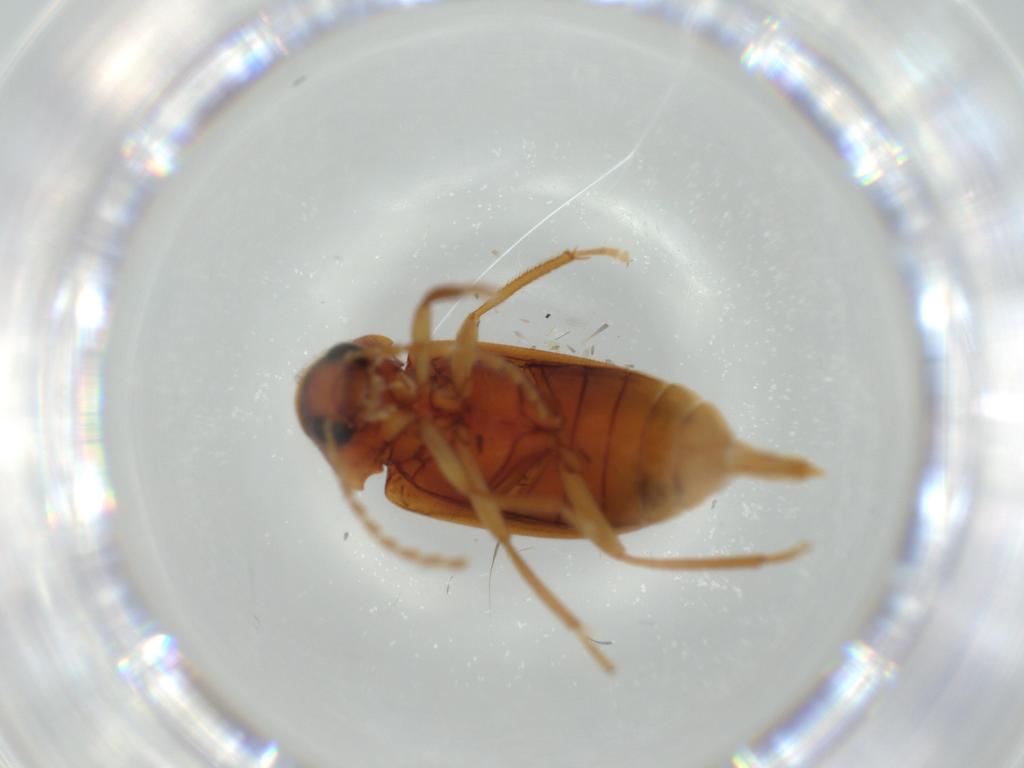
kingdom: Animalia
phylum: Arthropoda
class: Insecta
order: Coleoptera
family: Ptilodactylidae
